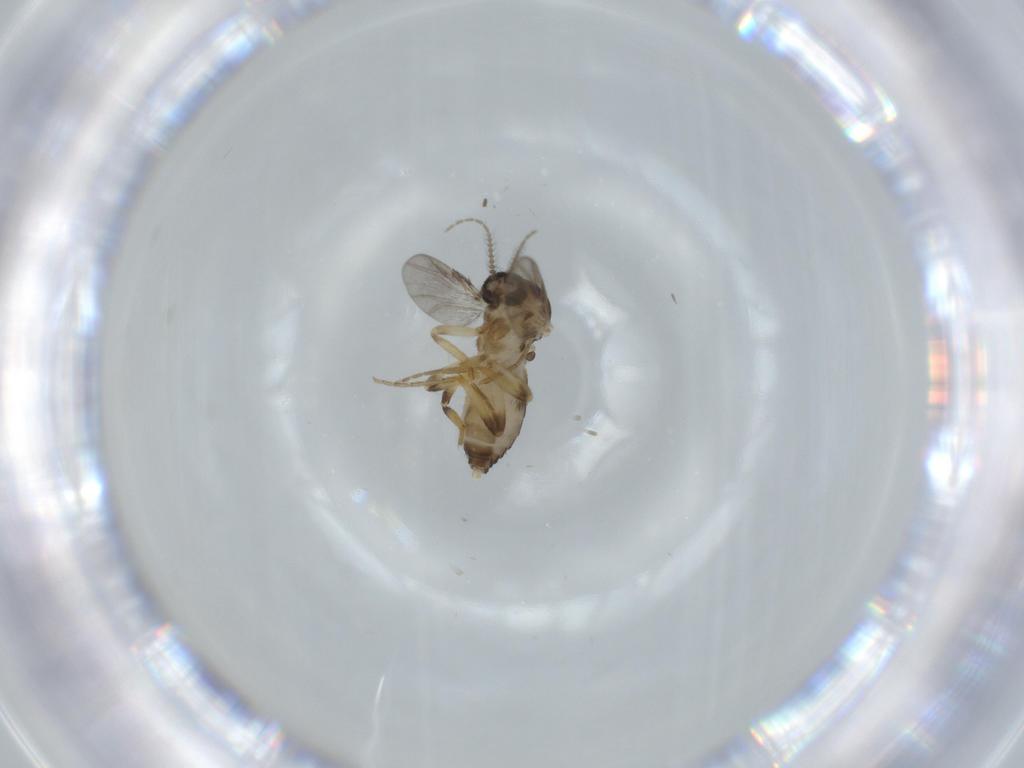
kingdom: Animalia
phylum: Arthropoda
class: Insecta
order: Diptera
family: Ceratopogonidae
